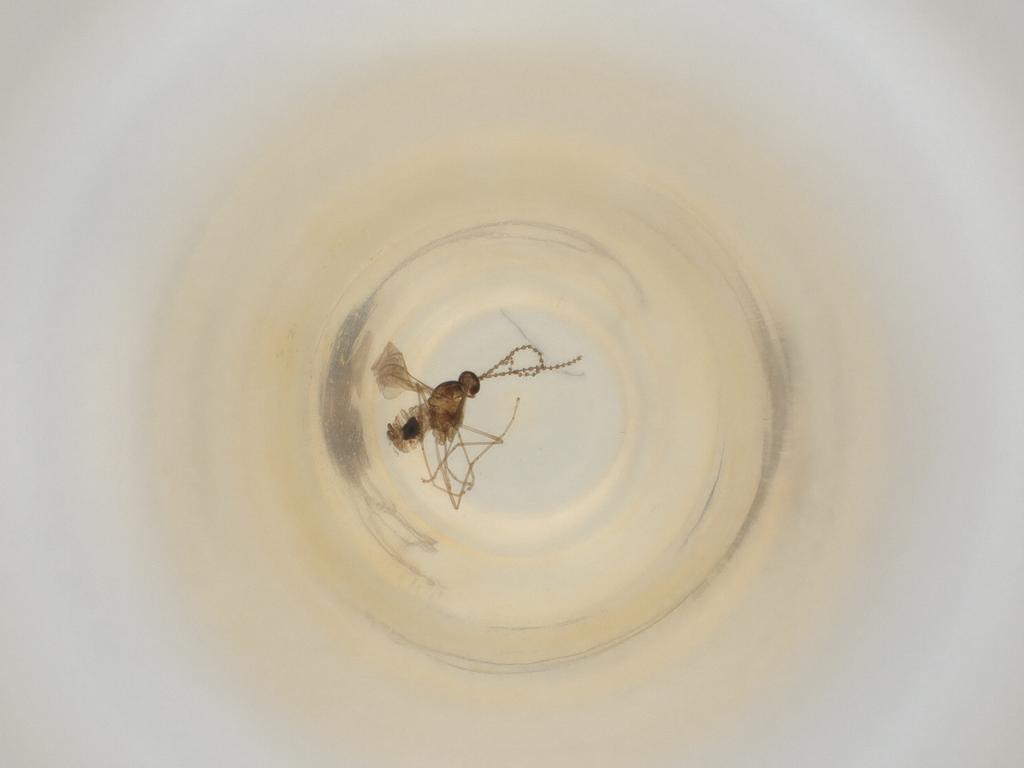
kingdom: Animalia
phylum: Arthropoda
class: Insecta
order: Diptera
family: Cecidomyiidae
